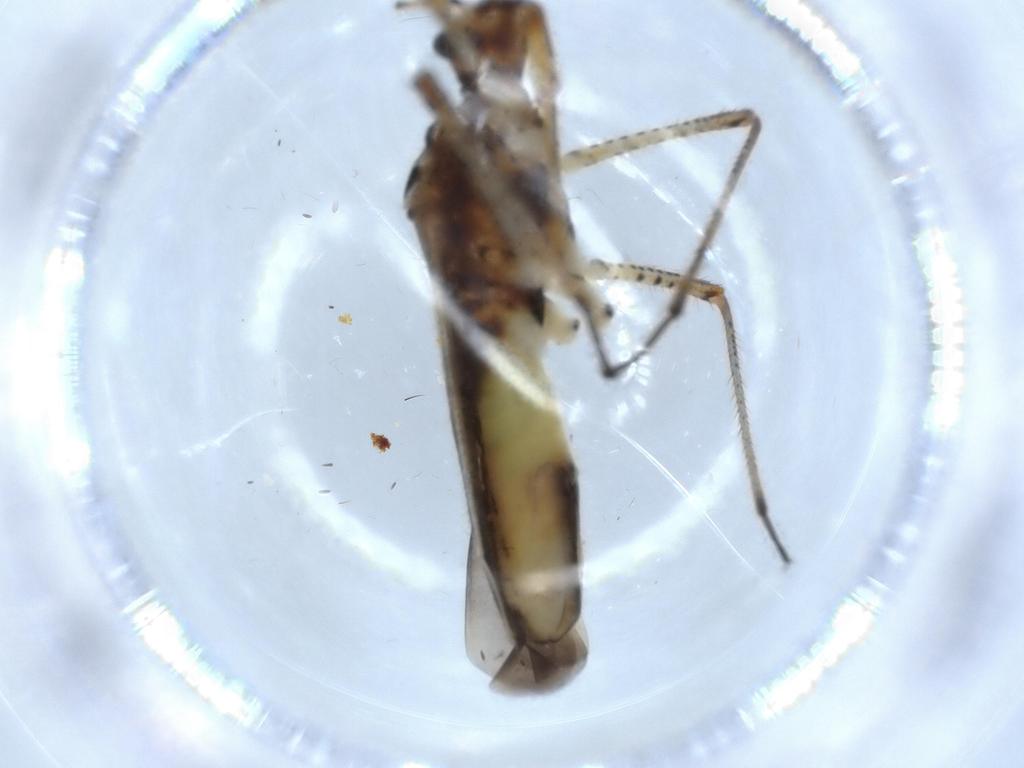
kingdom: Animalia
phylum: Arthropoda
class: Insecta
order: Hemiptera
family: Miridae
